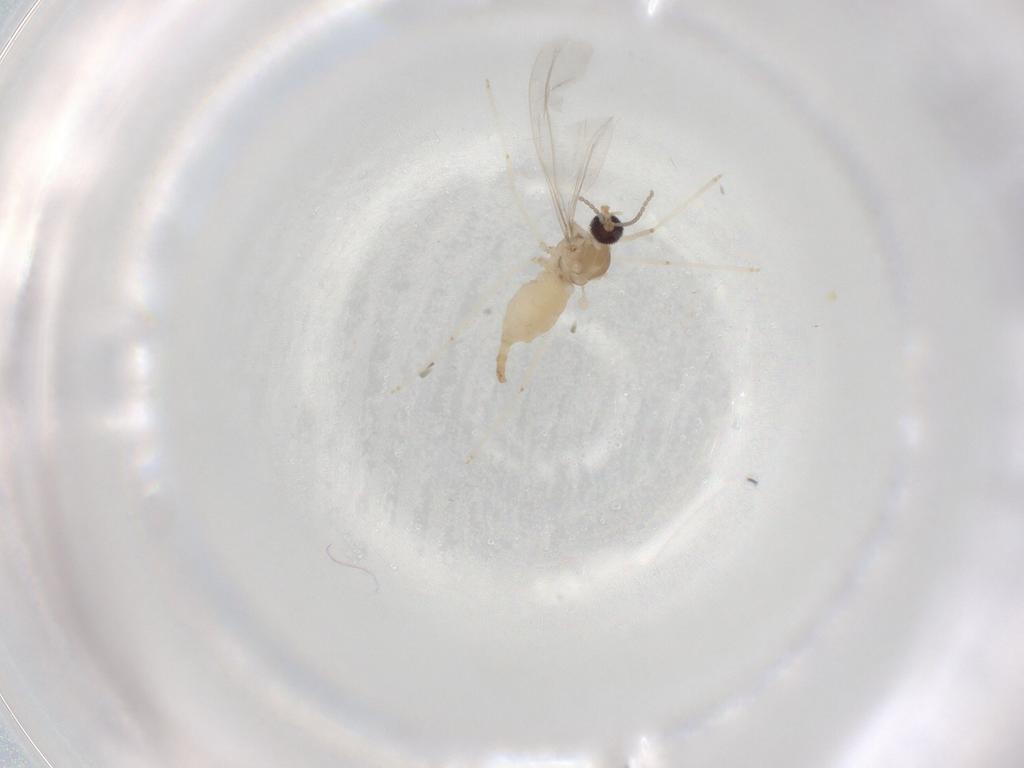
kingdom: Animalia
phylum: Arthropoda
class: Insecta
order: Diptera
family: Cecidomyiidae
